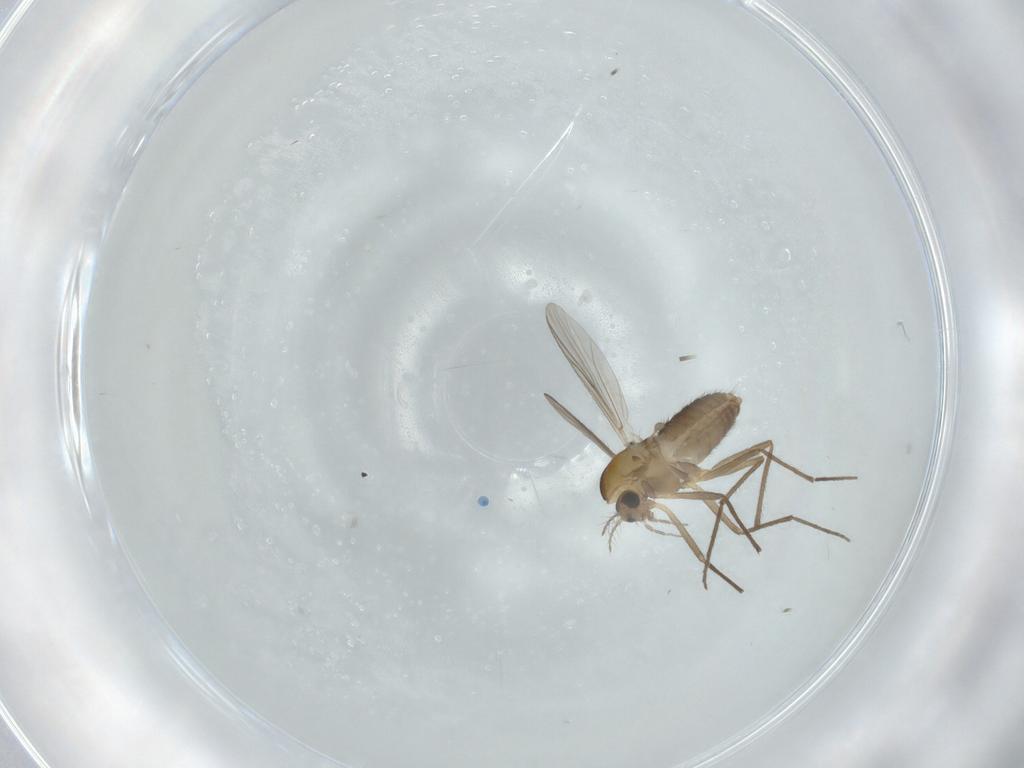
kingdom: Animalia
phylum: Arthropoda
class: Insecta
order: Diptera
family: Chironomidae
